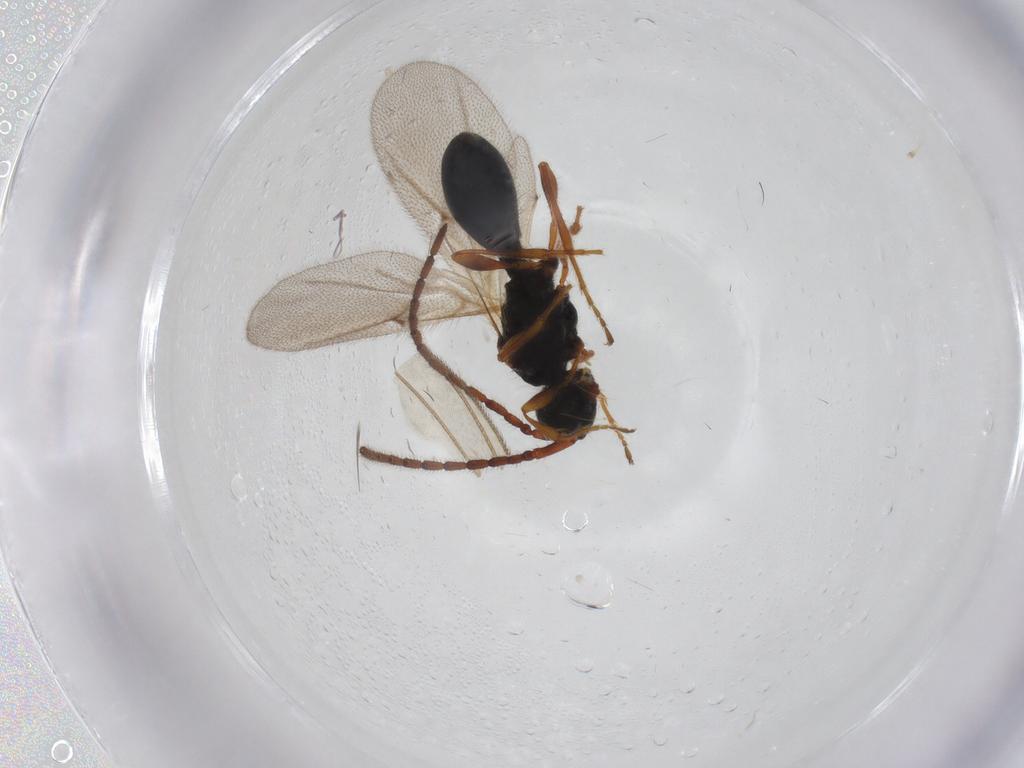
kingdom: Animalia
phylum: Arthropoda
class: Insecta
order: Hymenoptera
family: Diapriidae
